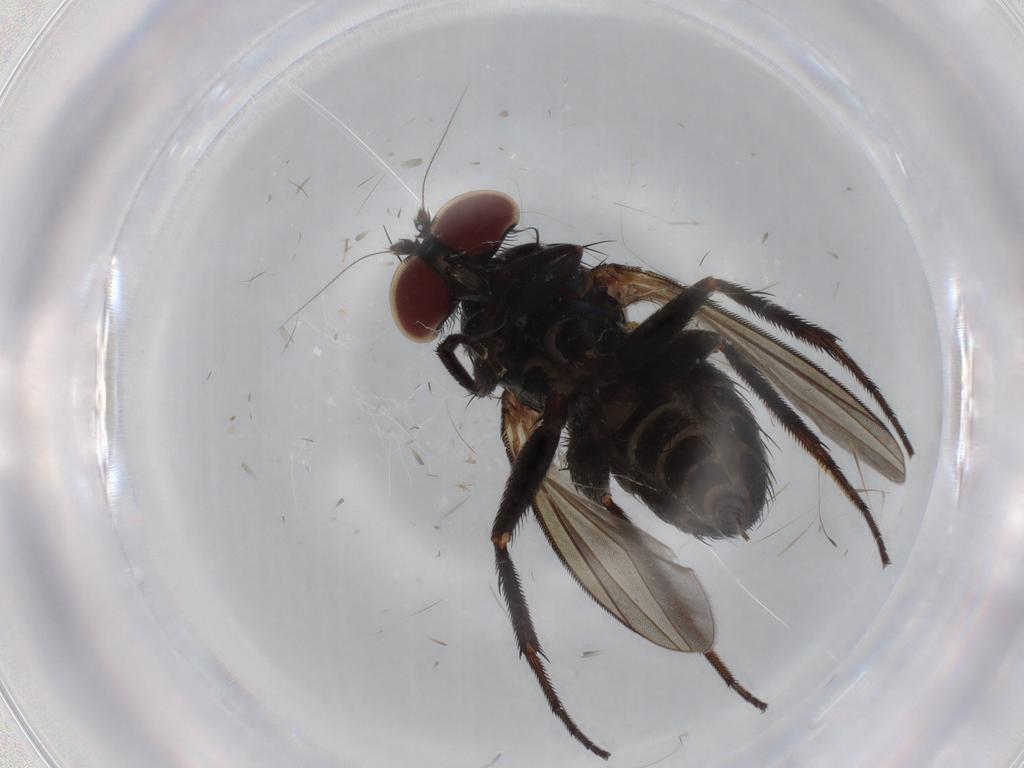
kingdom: Animalia
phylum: Arthropoda
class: Insecta
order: Diptera
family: Dolichopodidae
